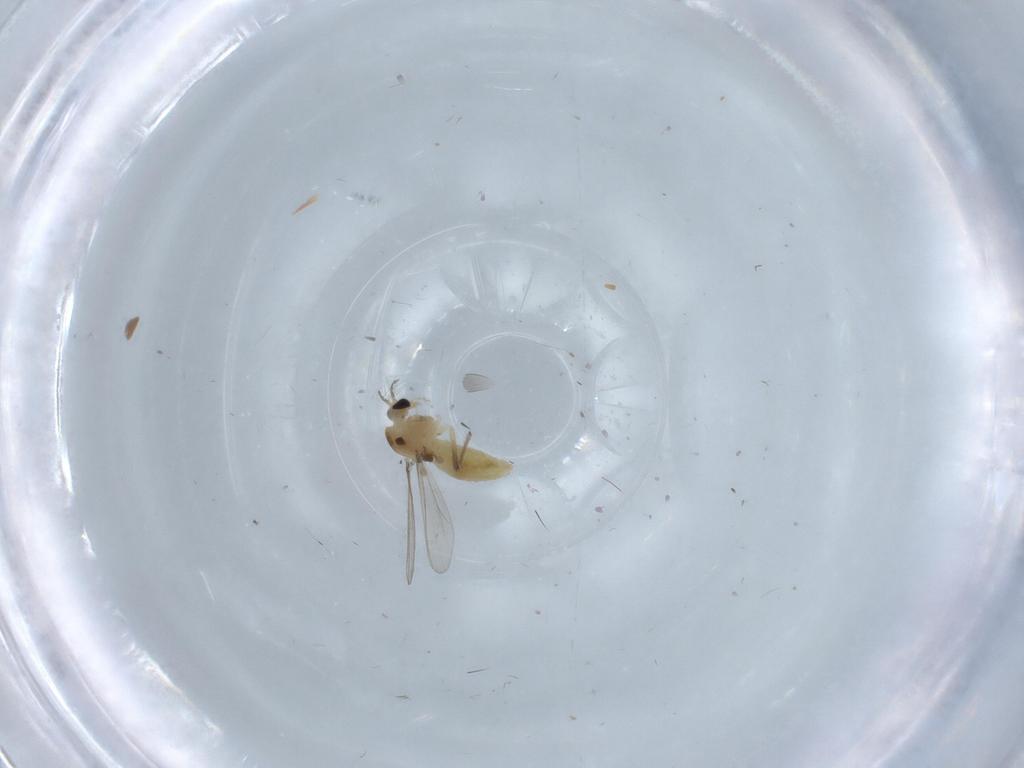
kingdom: Animalia
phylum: Arthropoda
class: Insecta
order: Diptera
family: Chironomidae
